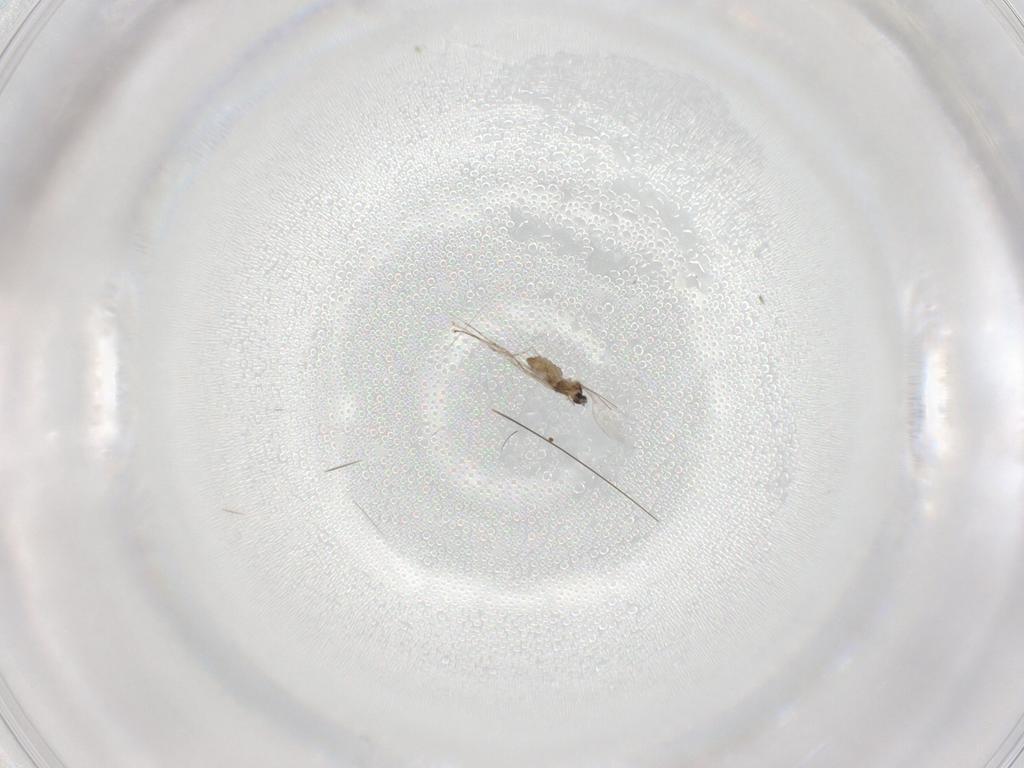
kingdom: Animalia
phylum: Arthropoda
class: Insecta
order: Diptera
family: Cecidomyiidae
